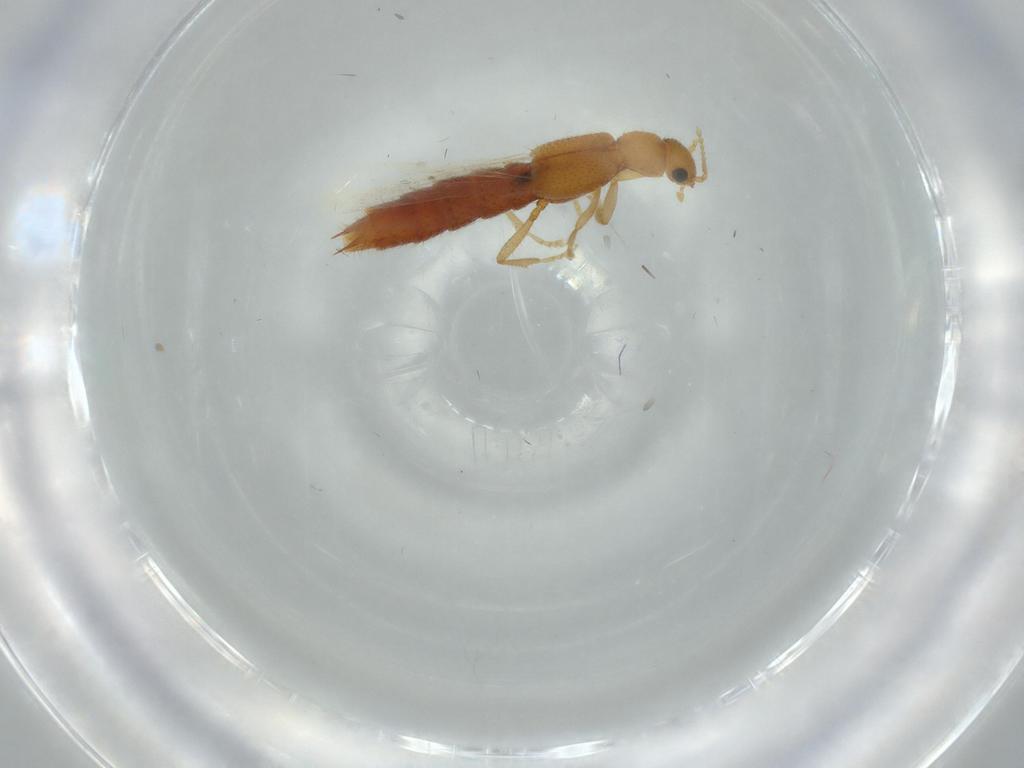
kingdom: Animalia
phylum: Arthropoda
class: Insecta
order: Coleoptera
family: Staphylinidae
